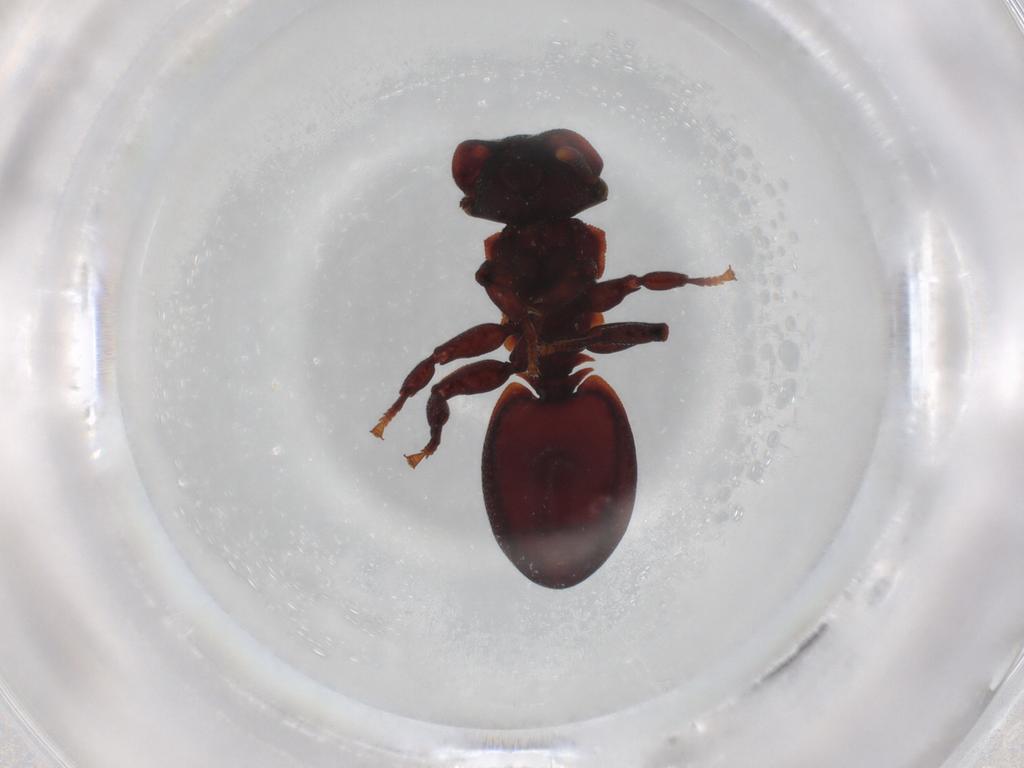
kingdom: Animalia
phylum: Arthropoda
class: Insecta
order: Hymenoptera
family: Formicidae
